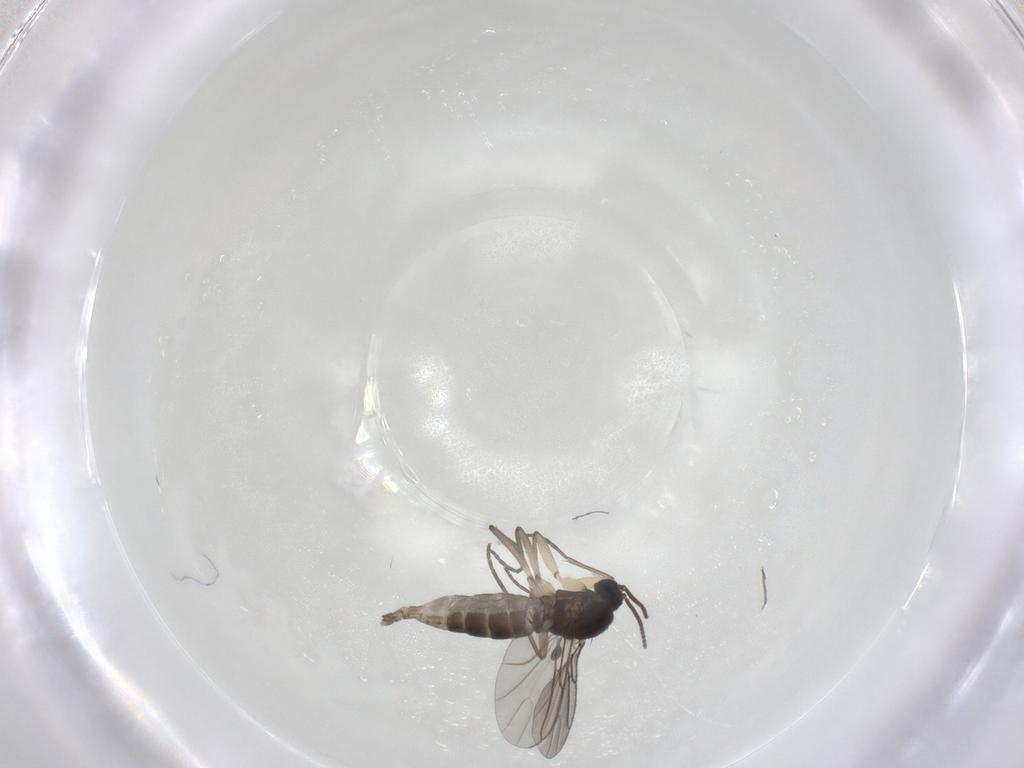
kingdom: Animalia
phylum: Arthropoda
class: Insecta
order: Diptera
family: Sciaridae
